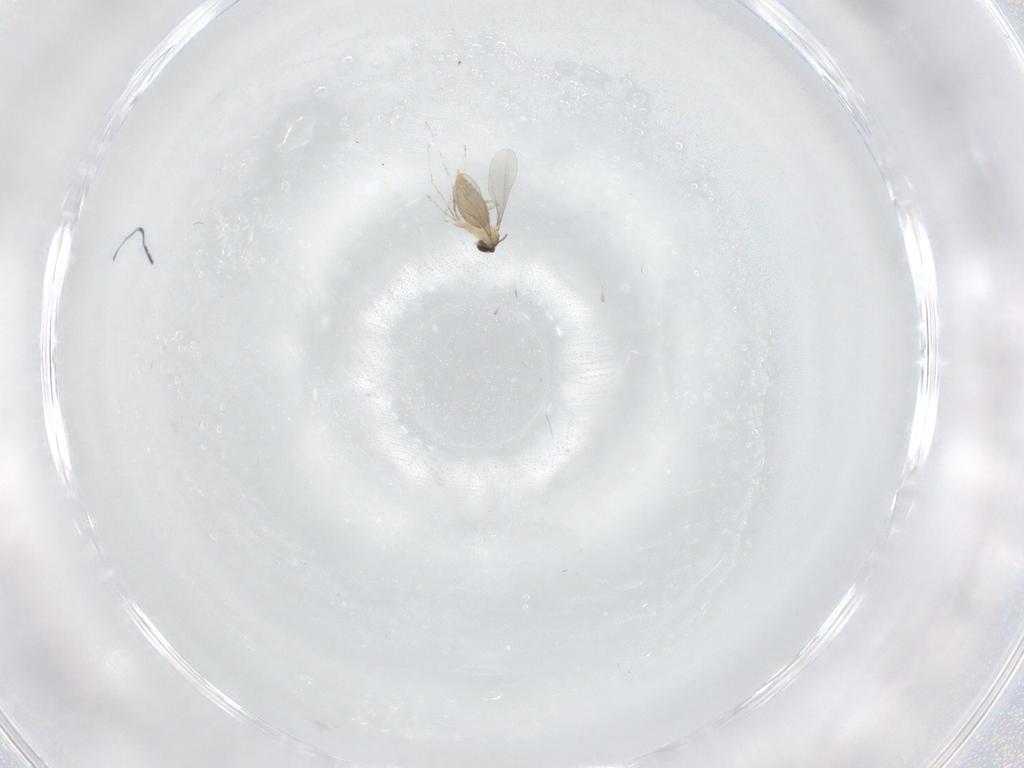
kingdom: Animalia
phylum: Arthropoda
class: Insecta
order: Diptera
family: Cecidomyiidae
